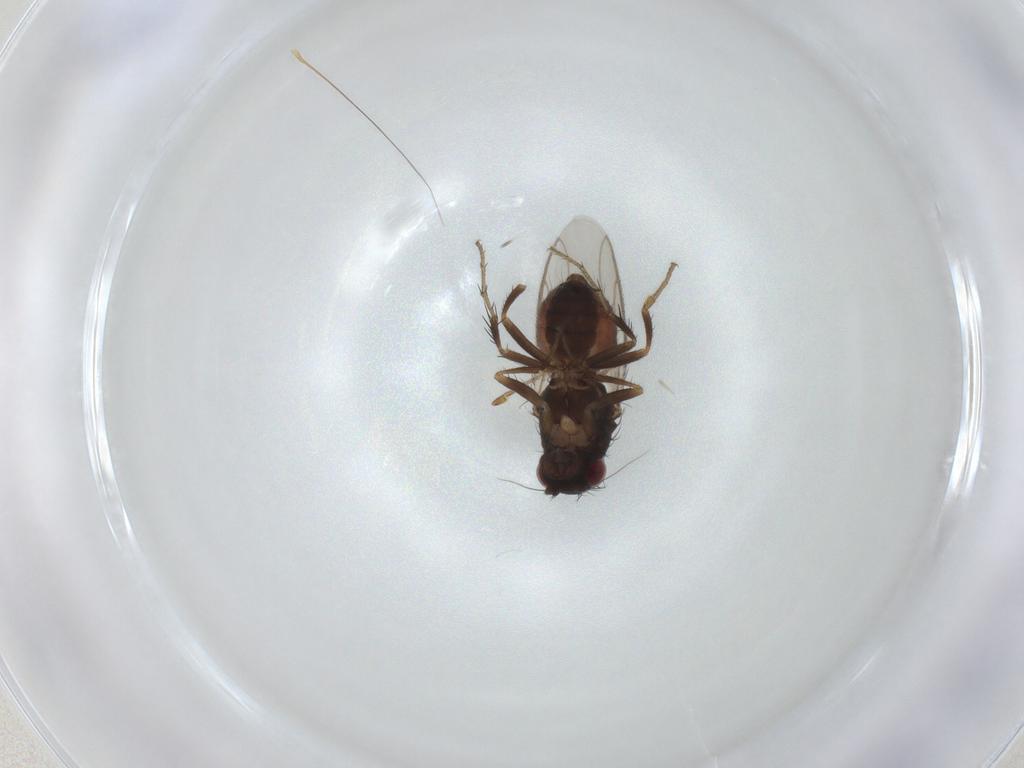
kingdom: Animalia
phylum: Arthropoda
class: Insecta
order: Diptera
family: Sphaeroceridae
